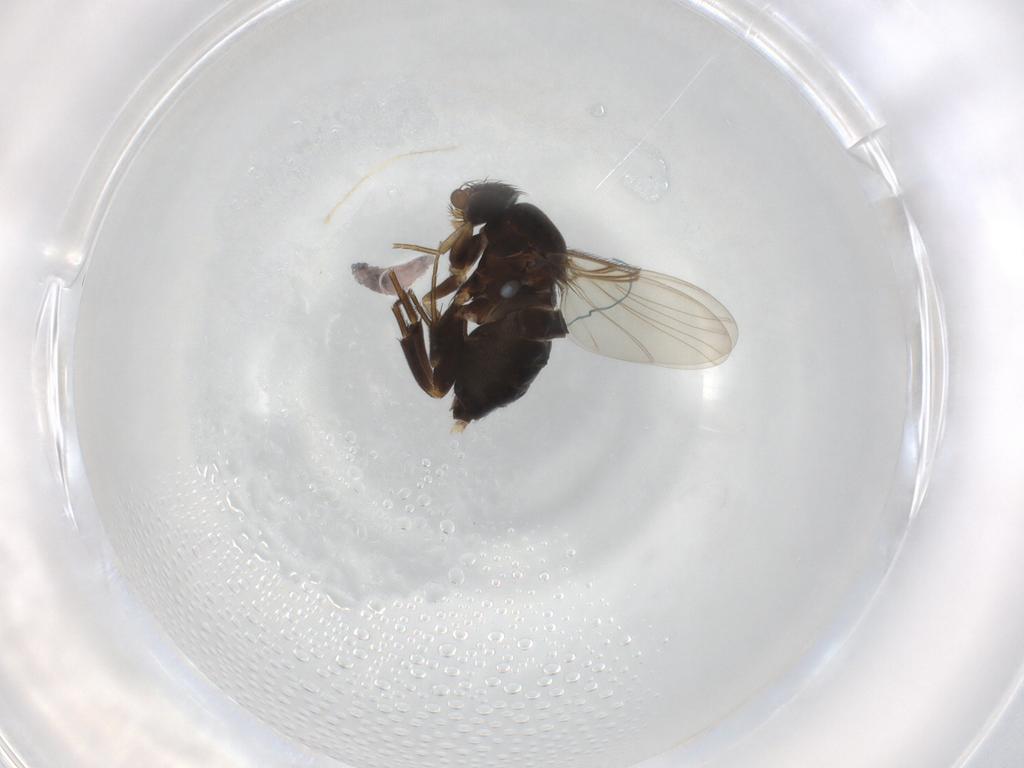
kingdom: Animalia
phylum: Arthropoda
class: Insecta
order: Diptera
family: Phoridae
